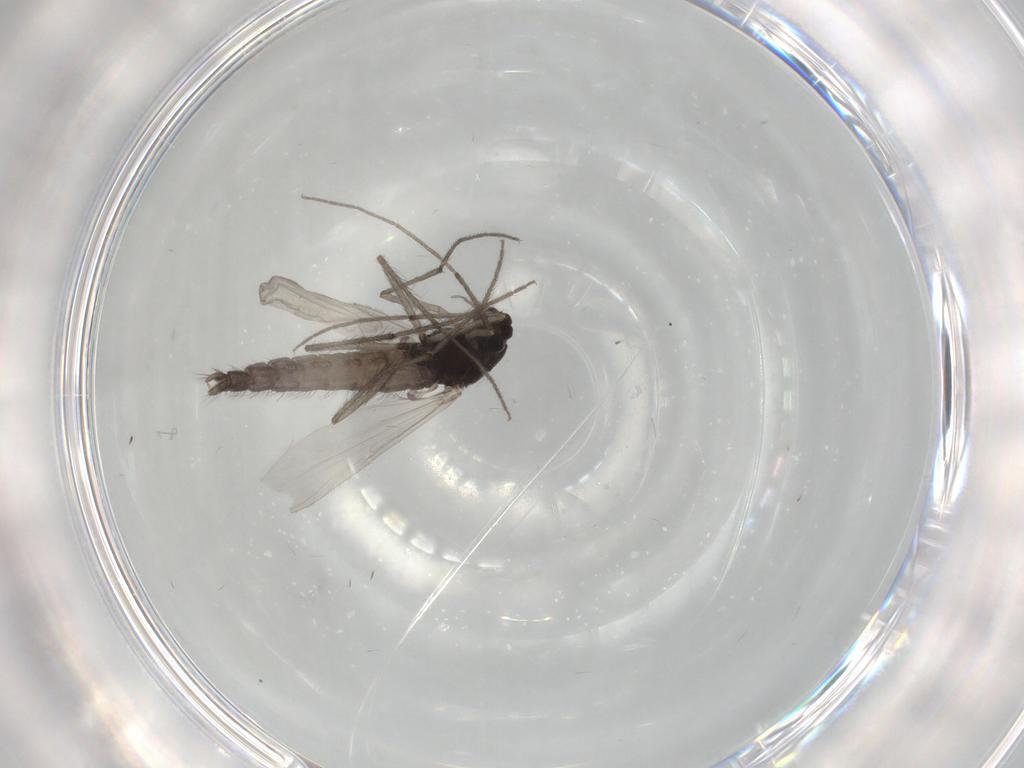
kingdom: Animalia
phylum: Arthropoda
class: Insecta
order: Diptera
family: Chironomidae
